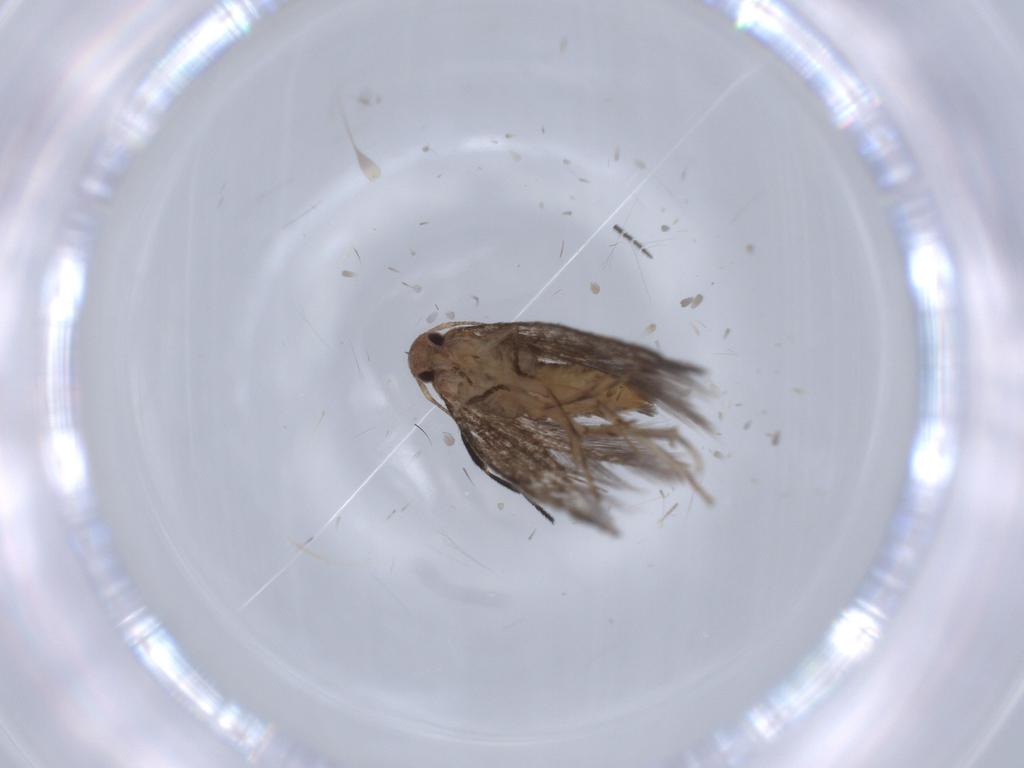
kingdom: Animalia
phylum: Arthropoda
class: Insecta
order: Lepidoptera
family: Gelechiidae
